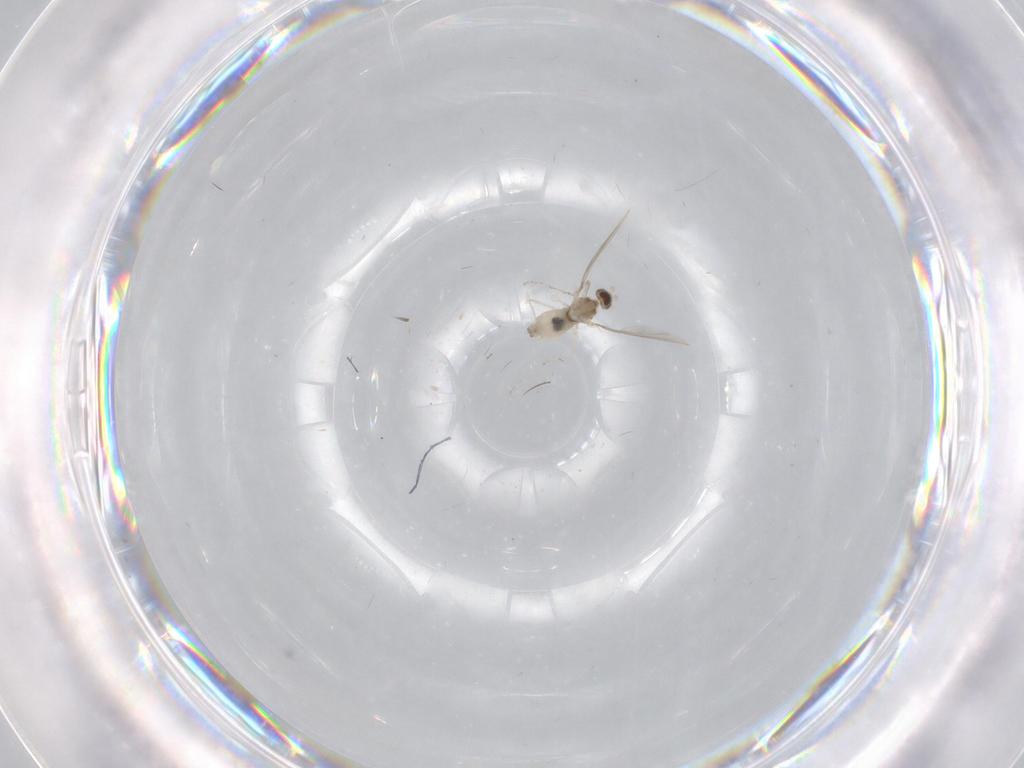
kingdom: Animalia
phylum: Arthropoda
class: Insecta
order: Diptera
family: Cecidomyiidae
